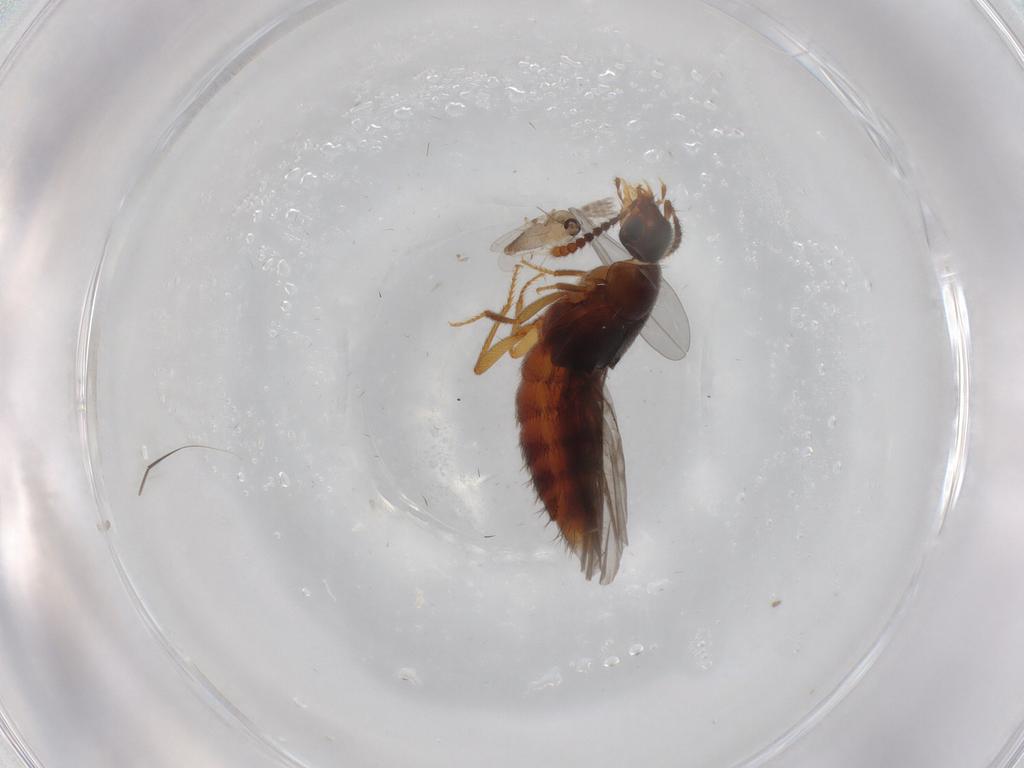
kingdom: Animalia
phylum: Arthropoda
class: Insecta
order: Diptera
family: Ceratopogonidae
